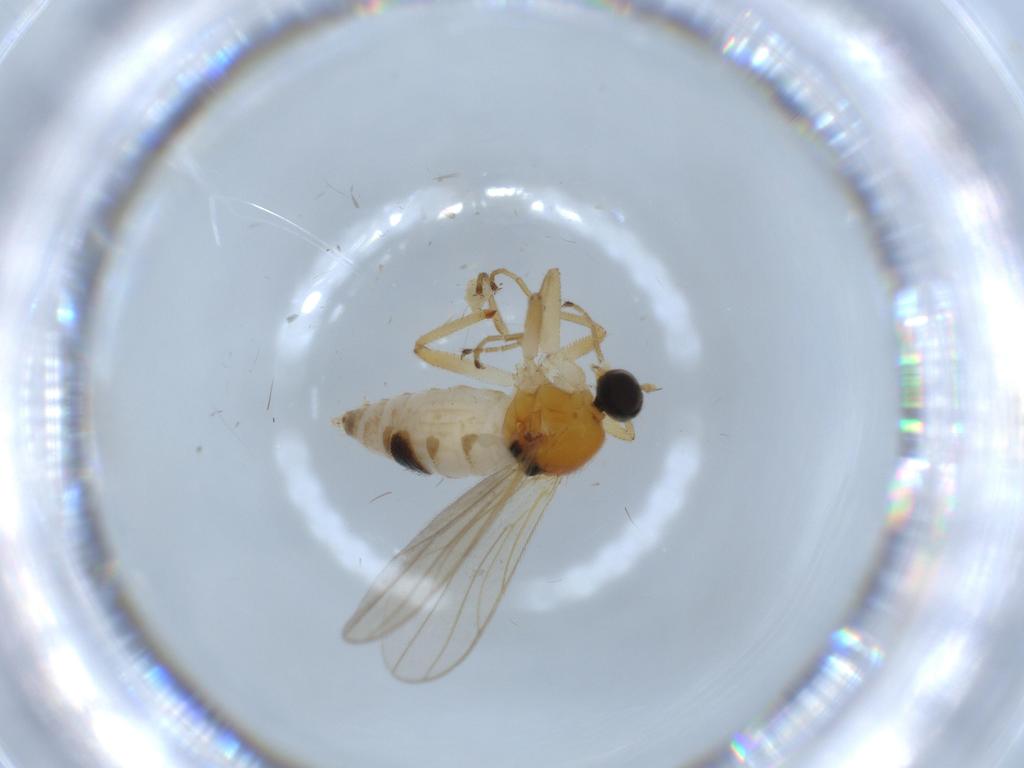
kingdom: Animalia
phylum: Arthropoda
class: Insecta
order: Diptera
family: Hybotidae
